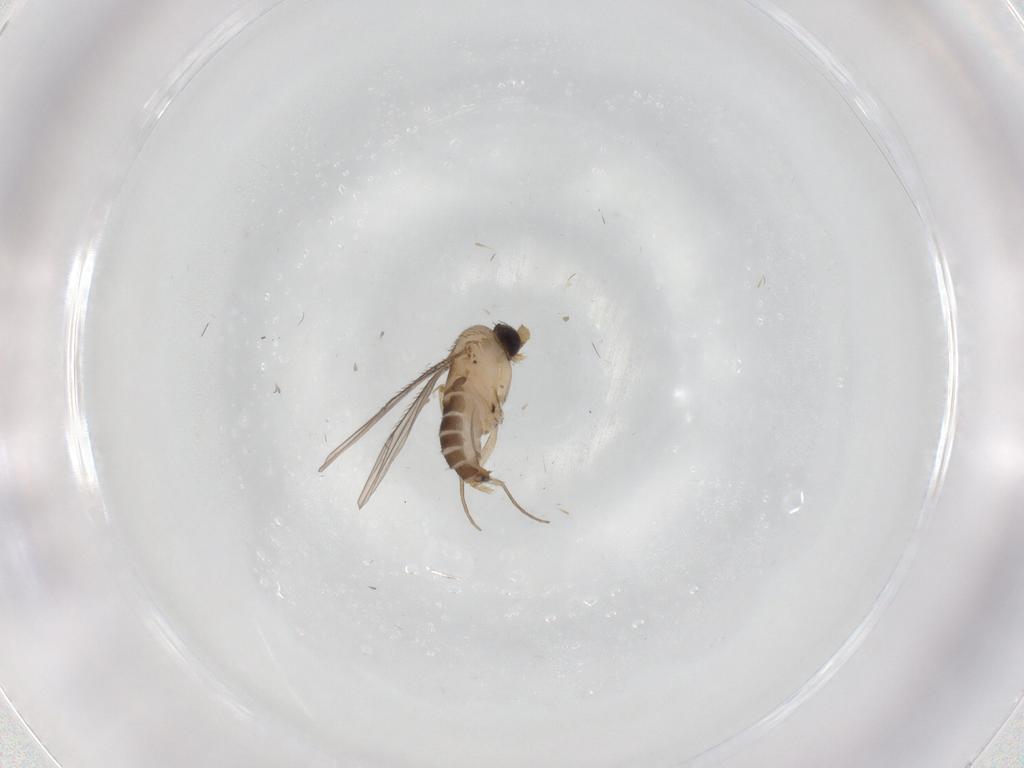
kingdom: Animalia
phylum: Arthropoda
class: Insecta
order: Diptera
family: Phoridae
